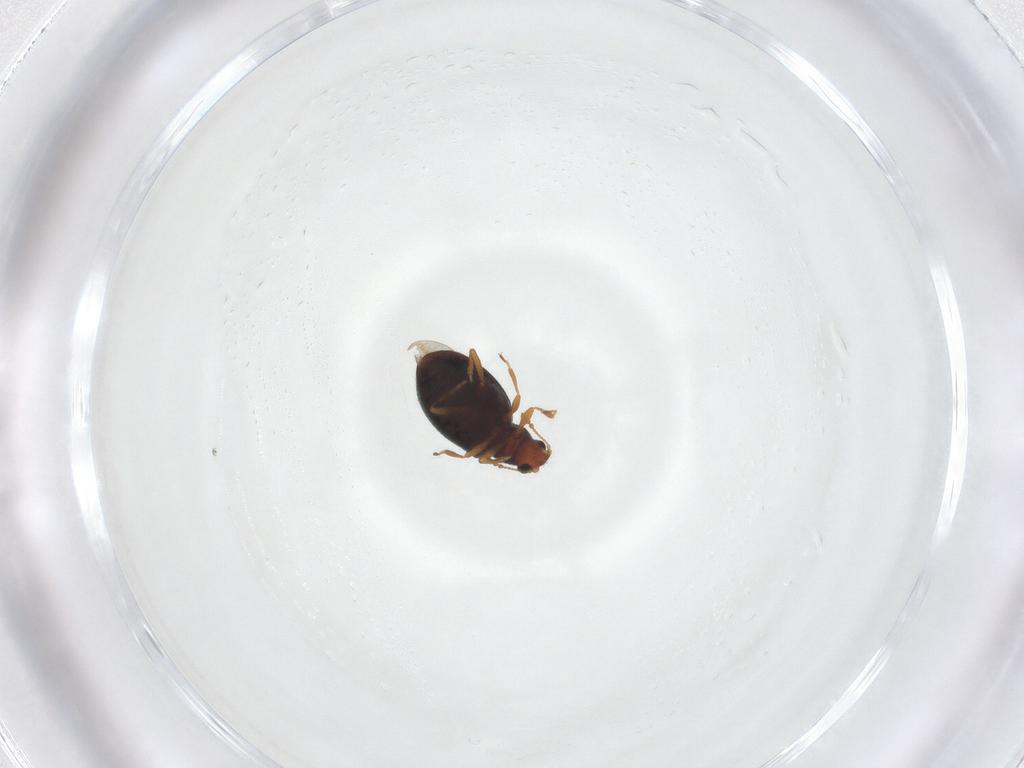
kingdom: Animalia
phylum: Arthropoda
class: Insecta
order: Coleoptera
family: Latridiidae
